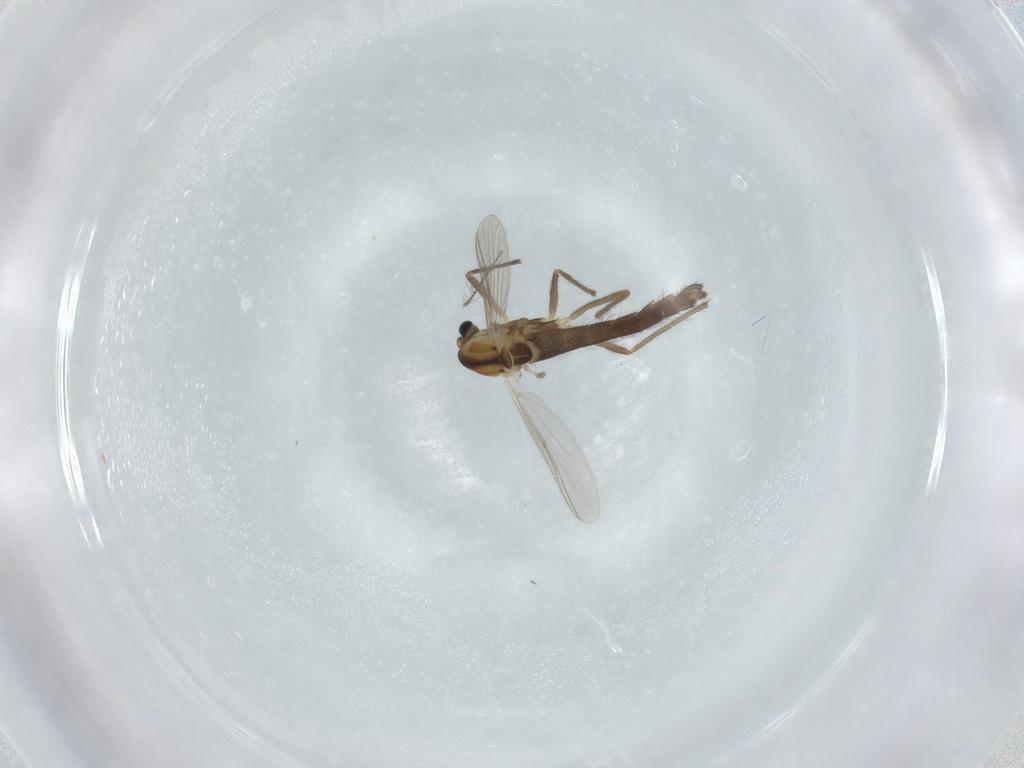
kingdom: Animalia
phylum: Arthropoda
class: Insecta
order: Diptera
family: Chironomidae
